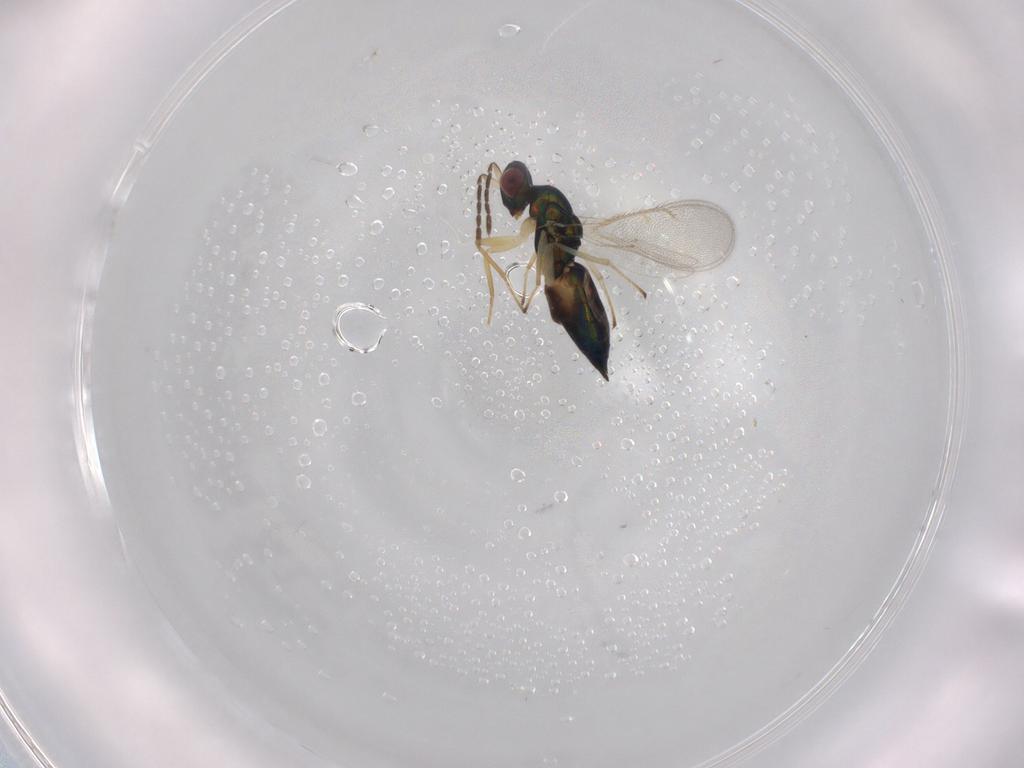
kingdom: Animalia
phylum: Arthropoda
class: Insecta
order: Hymenoptera
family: Eulophidae
